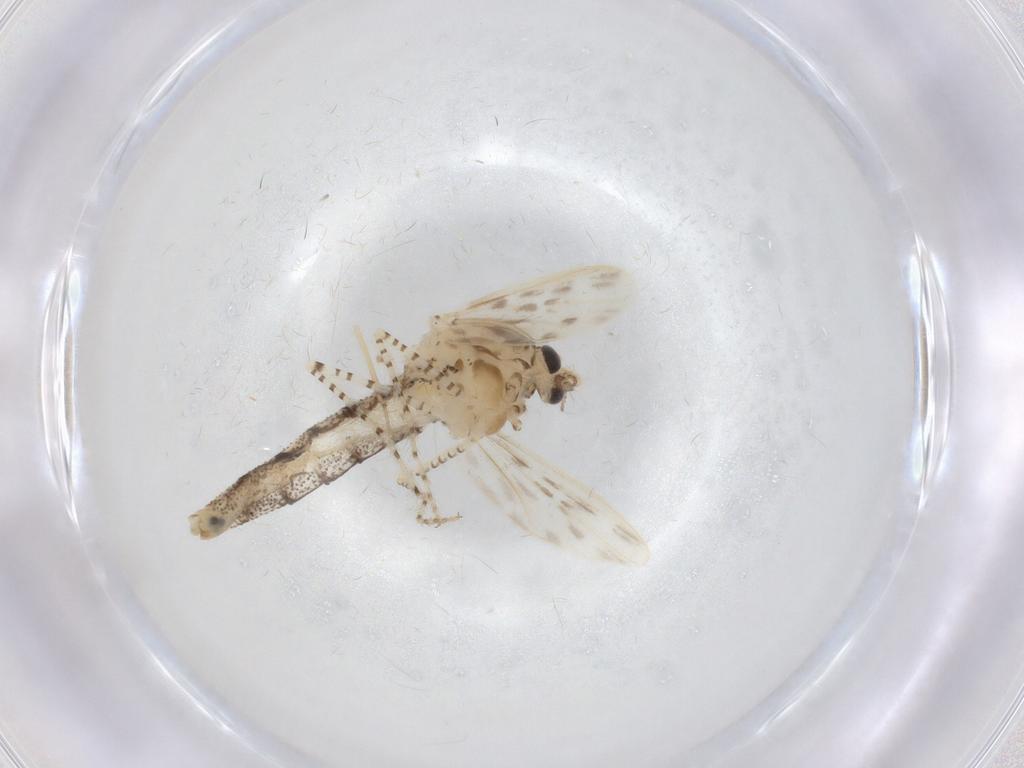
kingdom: Animalia
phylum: Arthropoda
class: Insecta
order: Diptera
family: Chaoboridae
